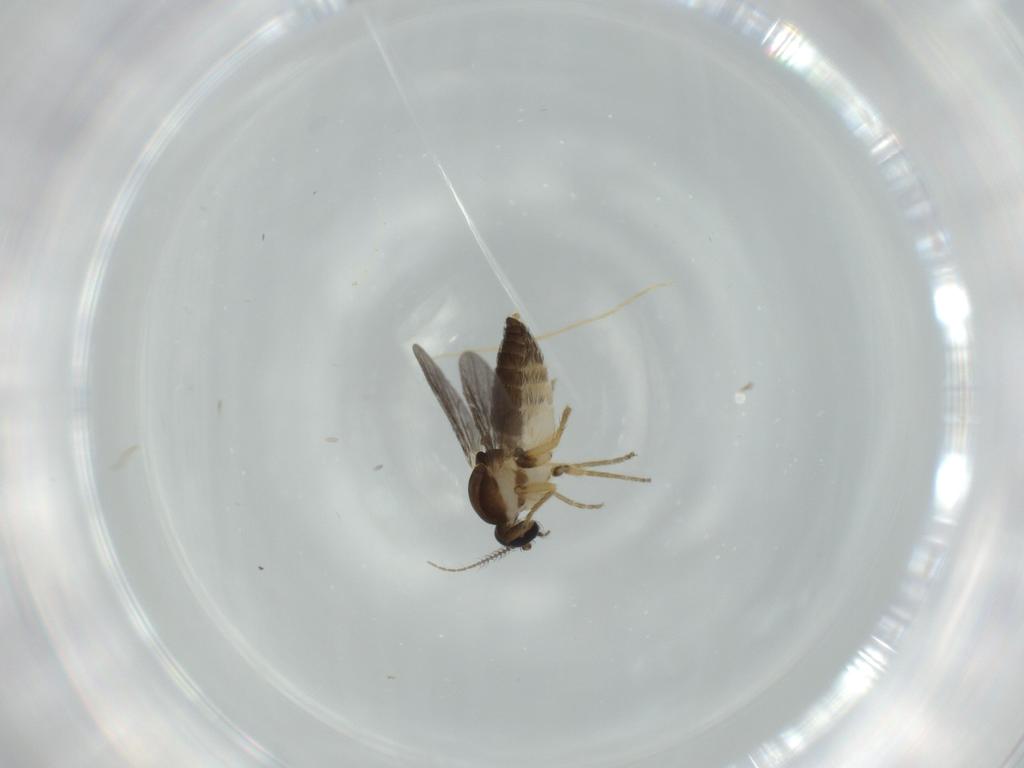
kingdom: Animalia
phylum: Arthropoda
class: Insecta
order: Diptera
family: Ceratopogonidae
